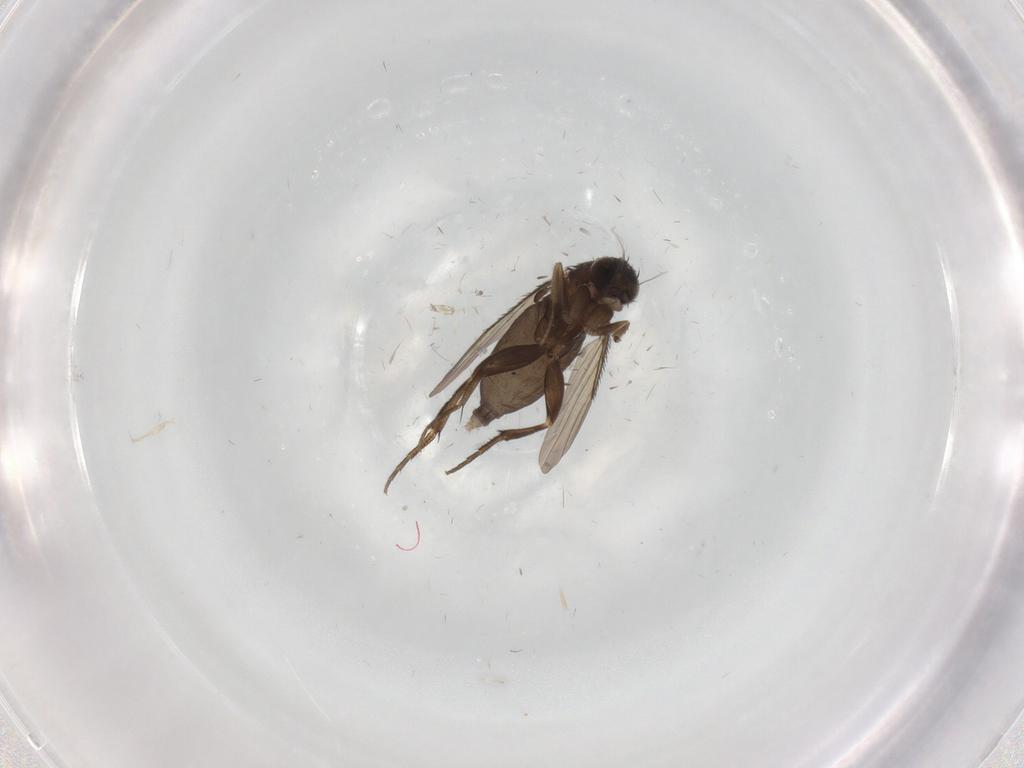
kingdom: Animalia
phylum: Arthropoda
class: Insecta
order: Diptera
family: Phoridae
